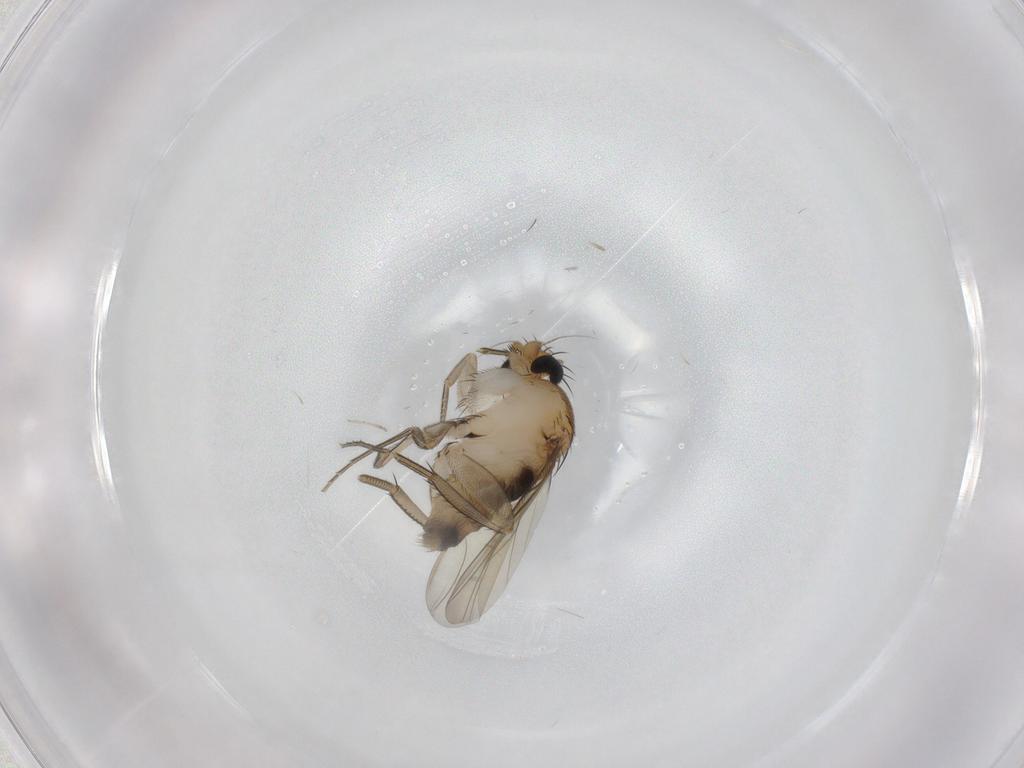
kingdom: Animalia
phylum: Arthropoda
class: Insecta
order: Diptera
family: Phoridae
